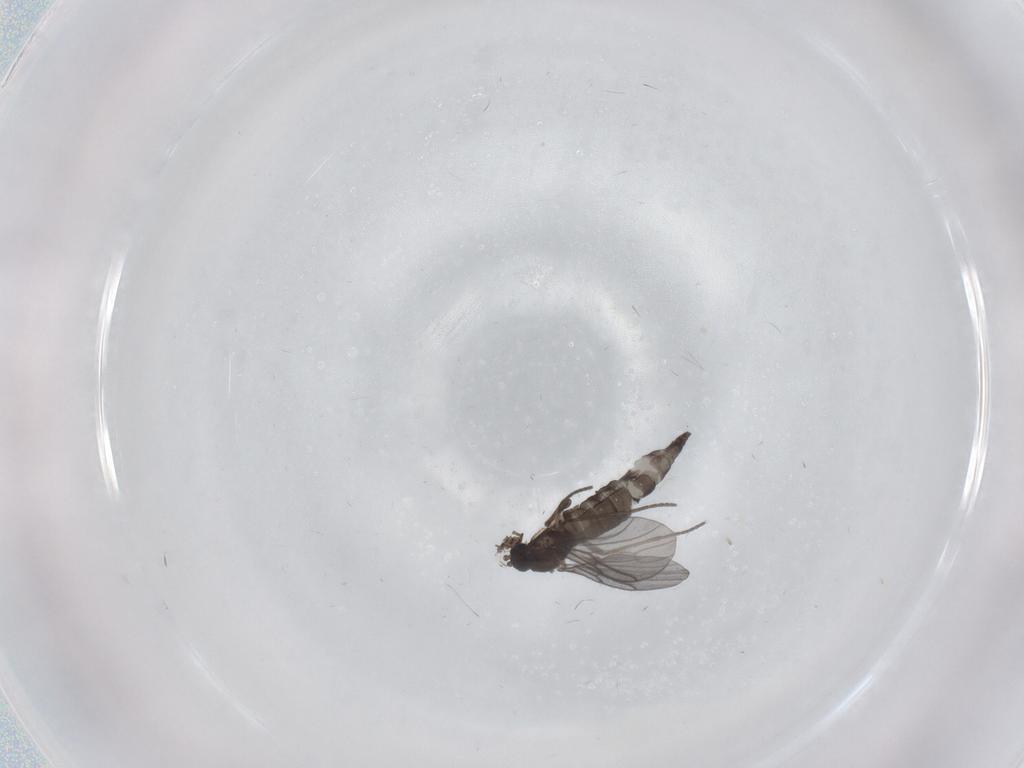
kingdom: Animalia
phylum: Arthropoda
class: Insecta
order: Diptera
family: Sciaridae
